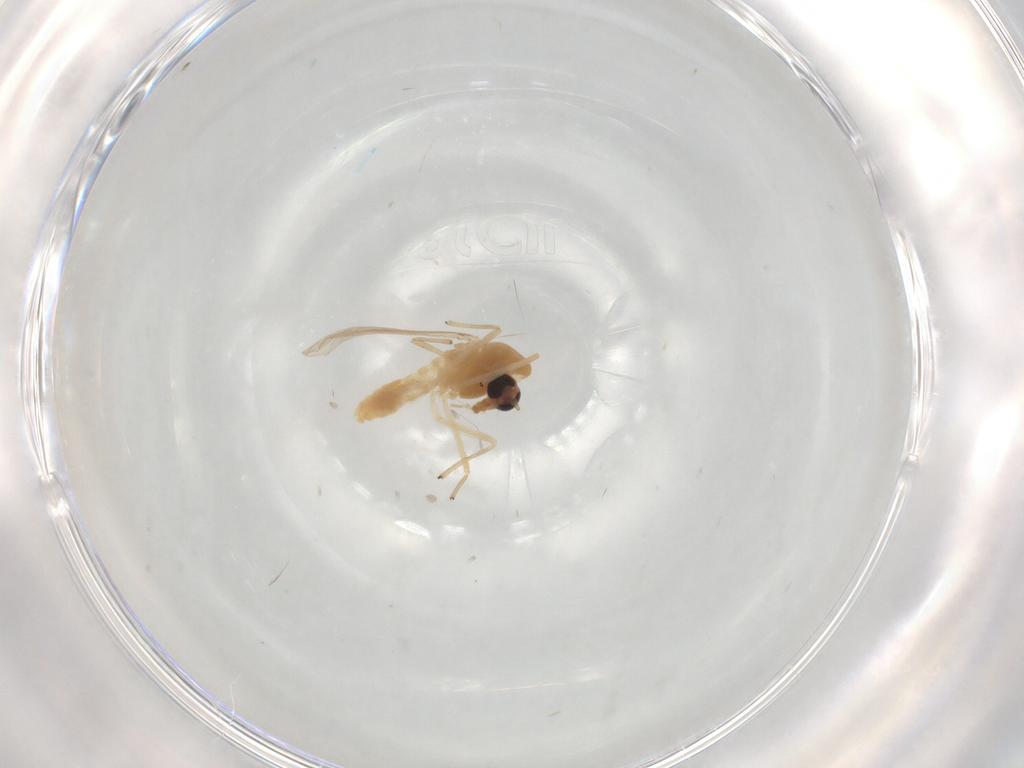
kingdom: Animalia
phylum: Arthropoda
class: Insecta
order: Diptera
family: Chironomidae
